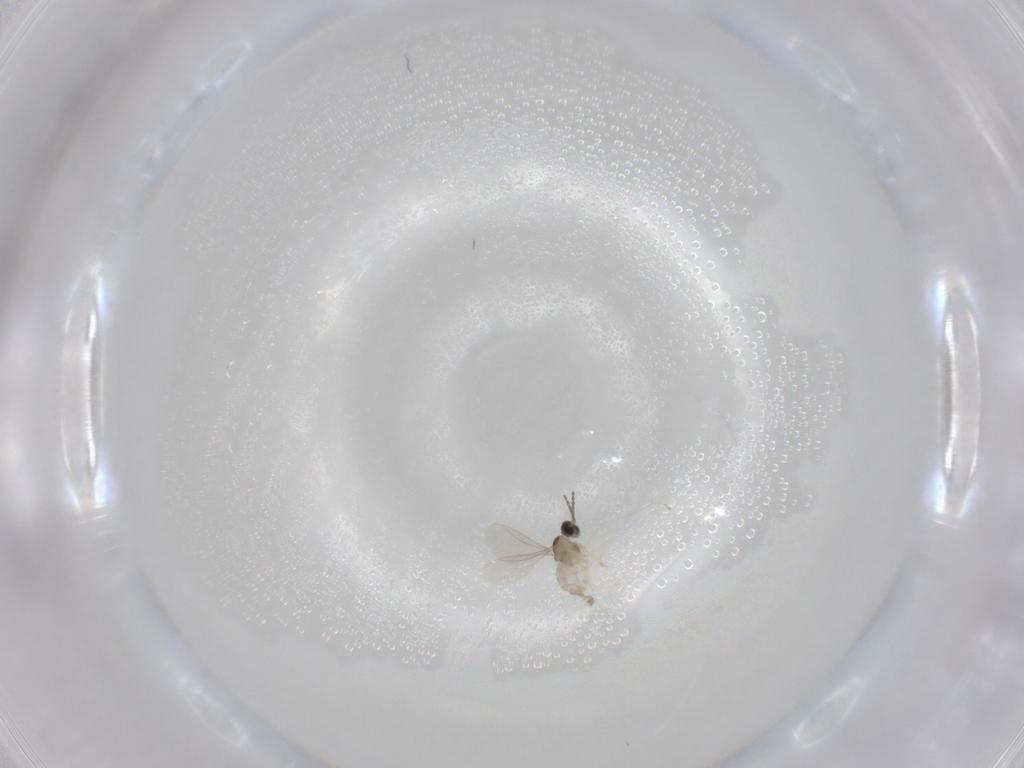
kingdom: Animalia
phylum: Arthropoda
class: Insecta
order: Diptera
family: Cecidomyiidae
